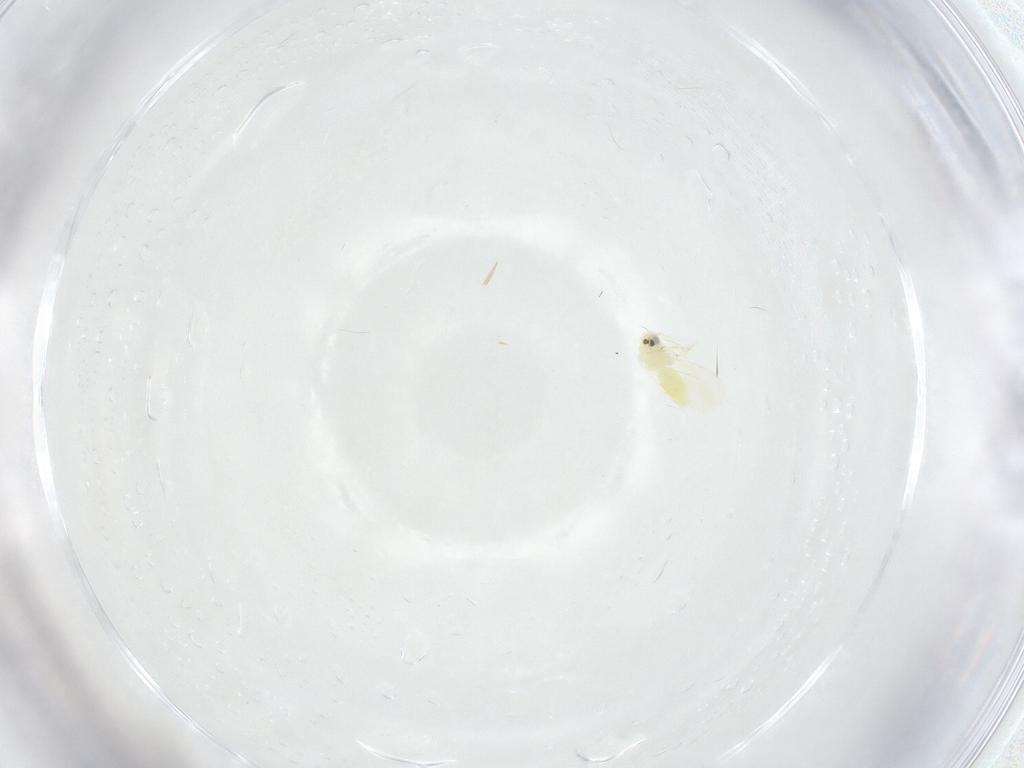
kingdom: Animalia
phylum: Arthropoda
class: Insecta
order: Hemiptera
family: Aleyrodidae
